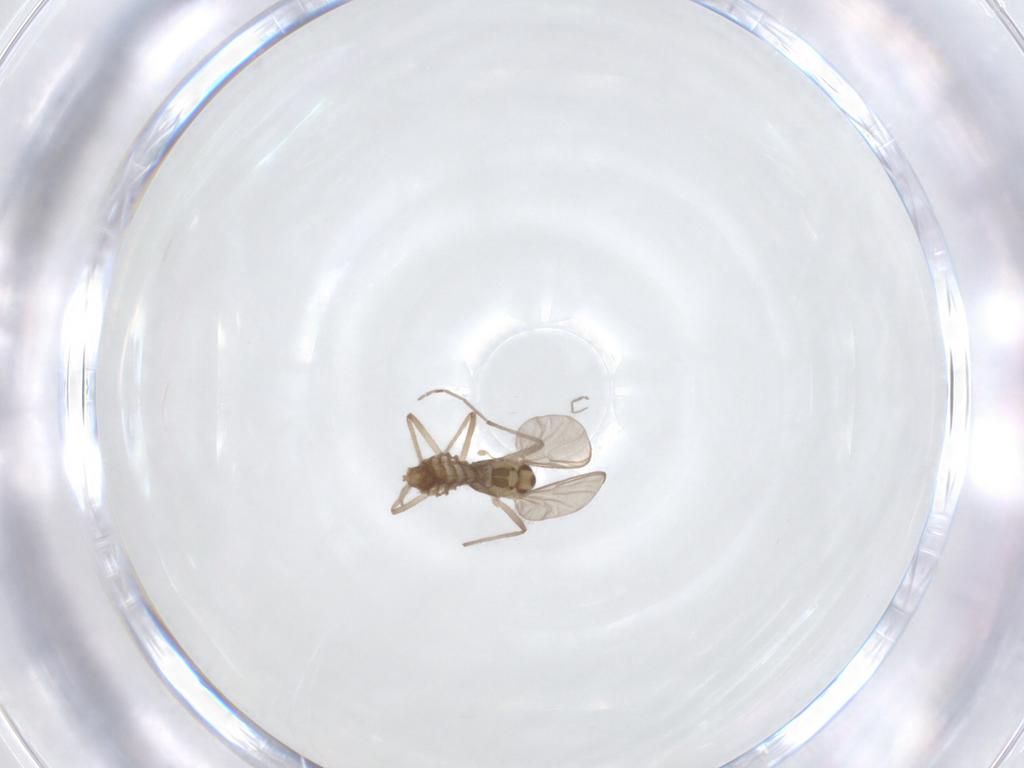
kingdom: Animalia
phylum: Arthropoda
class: Insecta
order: Diptera
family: Chironomidae
